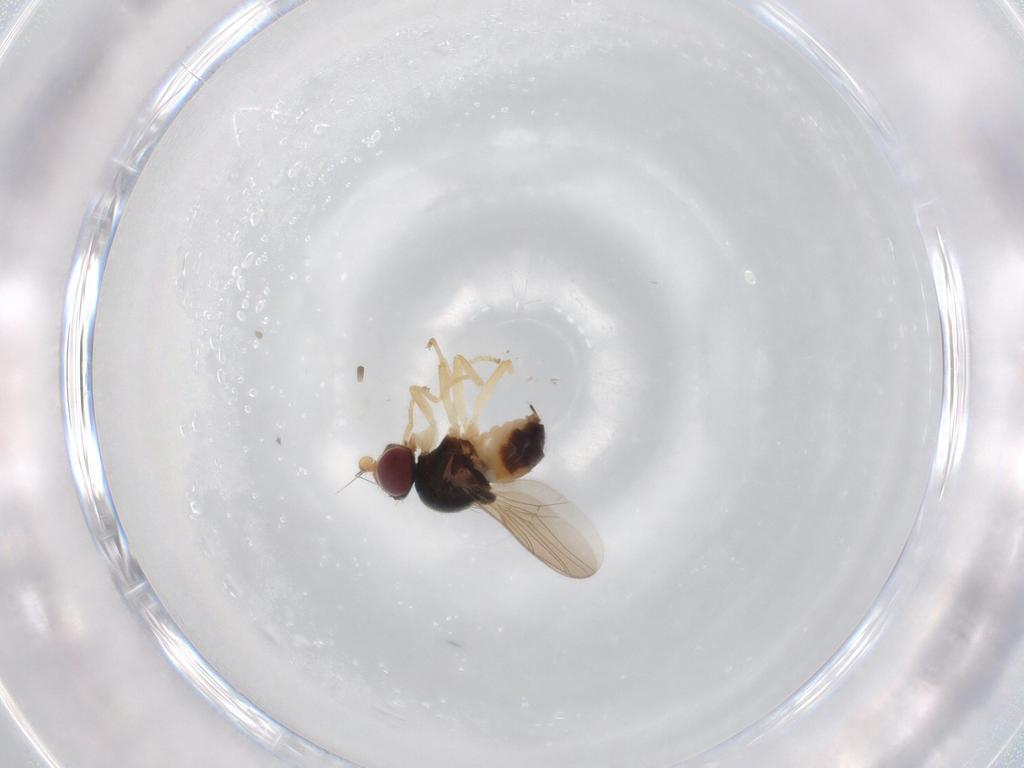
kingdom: Animalia
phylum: Arthropoda
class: Insecta
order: Diptera
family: Chloropidae
